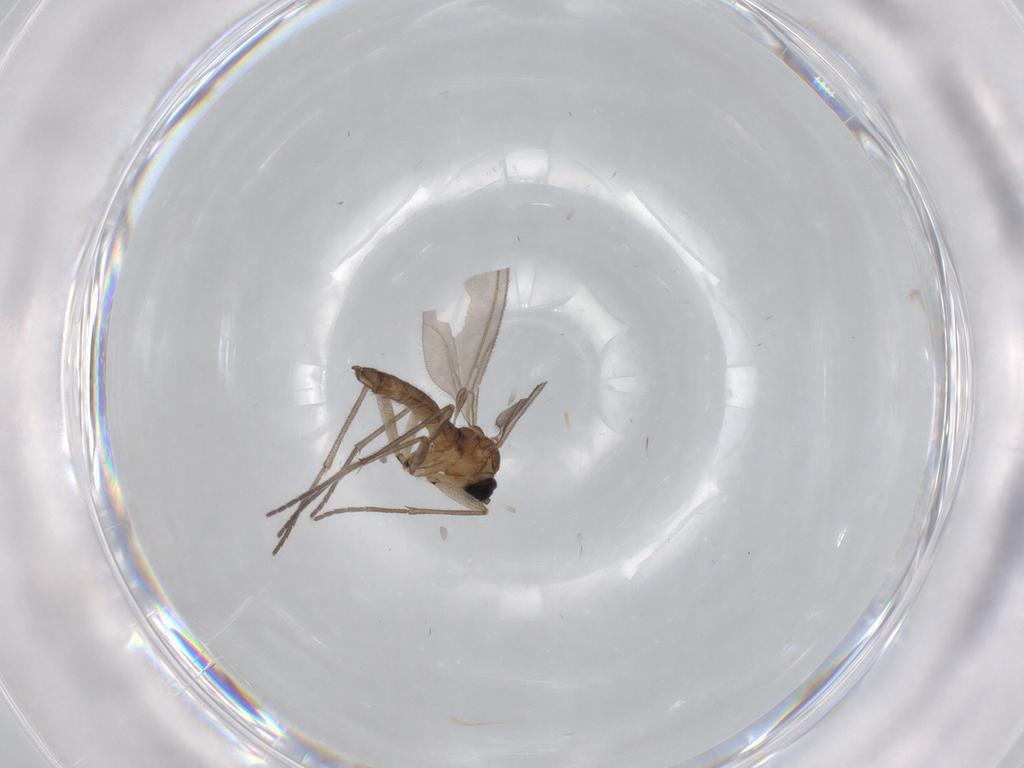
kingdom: Animalia
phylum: Arthropoda
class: Insecta
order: Diptera
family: Sciaridae
